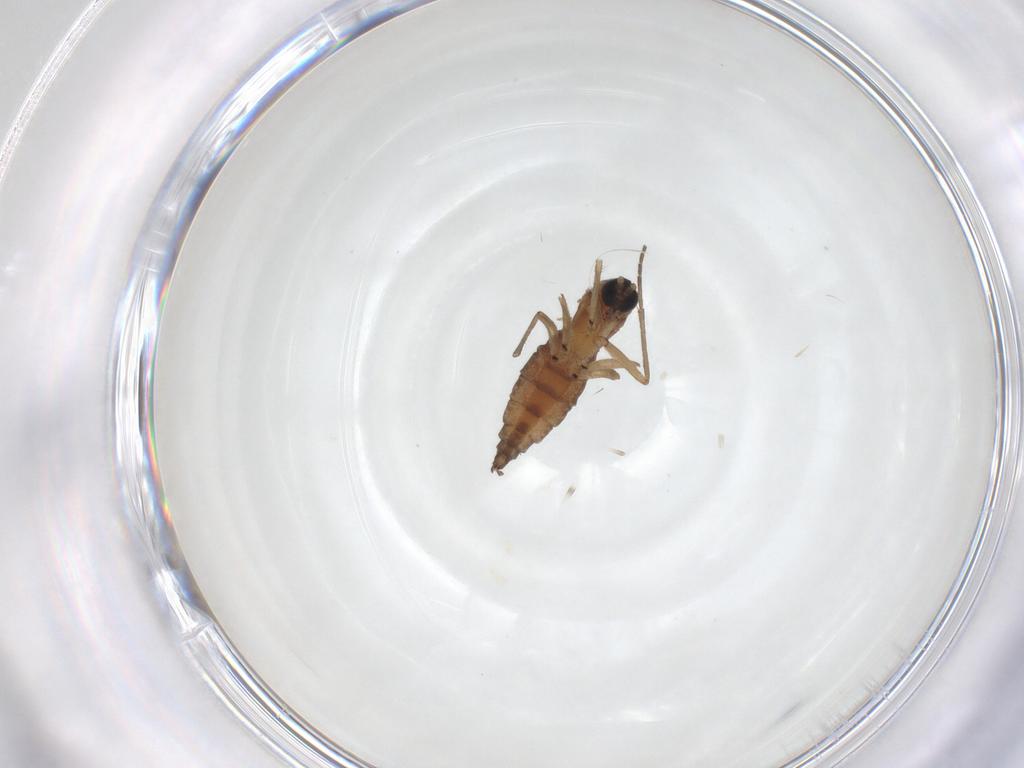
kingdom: Animalia
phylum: Arthropoda
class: Insecta
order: Diptera
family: Sciaridae
